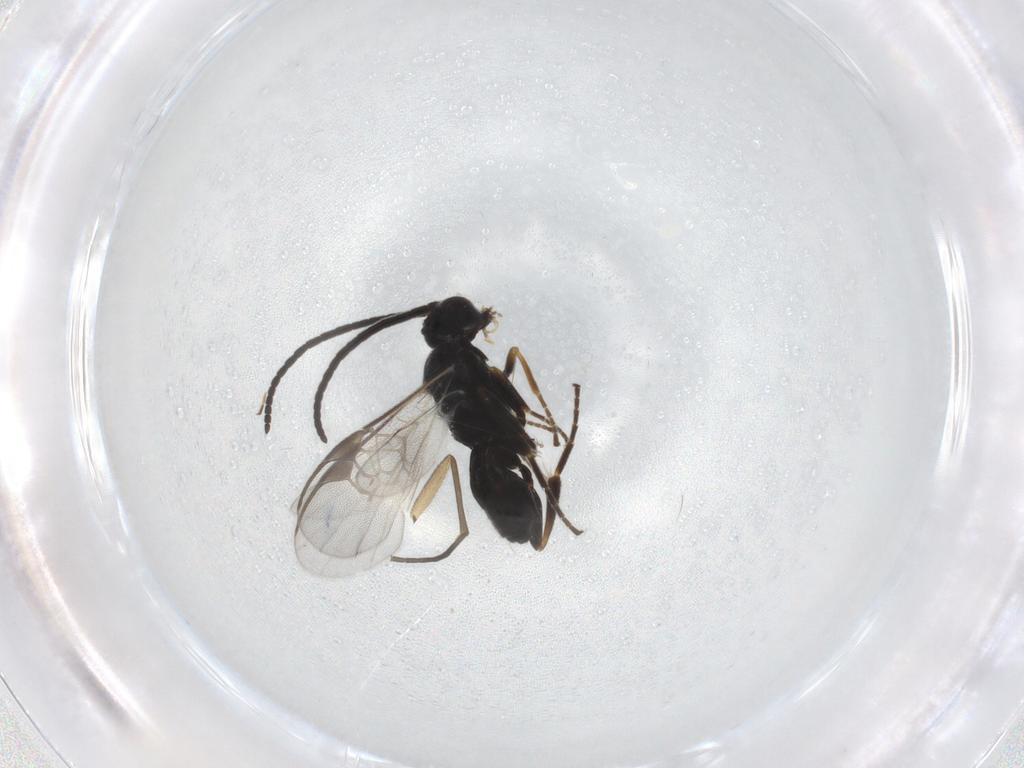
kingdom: Animalia
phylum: Arthropoda
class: Insecta
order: Hymenoptera
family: Braconidae
